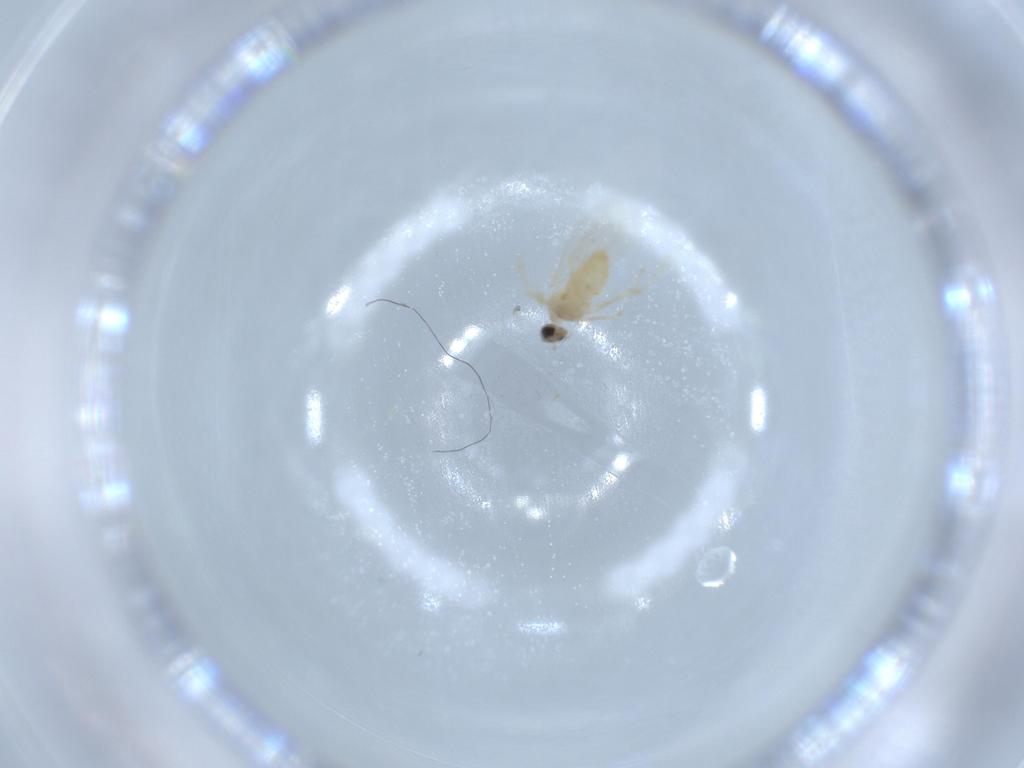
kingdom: Animalia
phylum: Arthropoda
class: Insecta
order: Diptera
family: Cecidomyiidae
